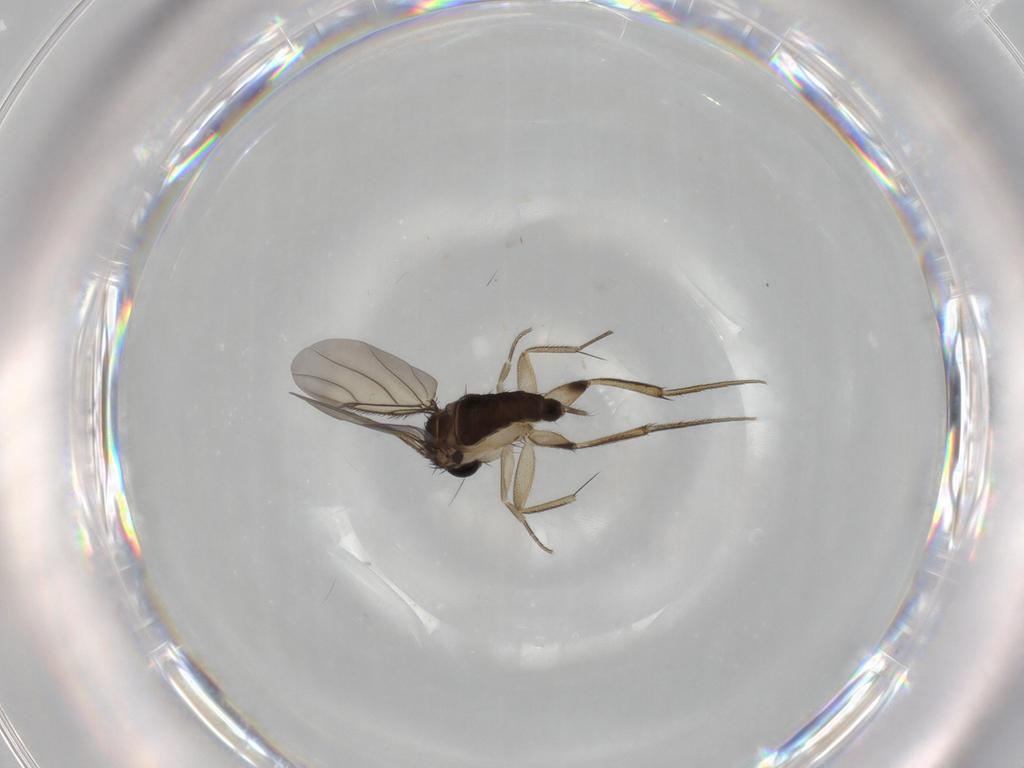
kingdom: Animalia
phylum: Arthropoda
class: Insecta
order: Diptera
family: Phoridae
